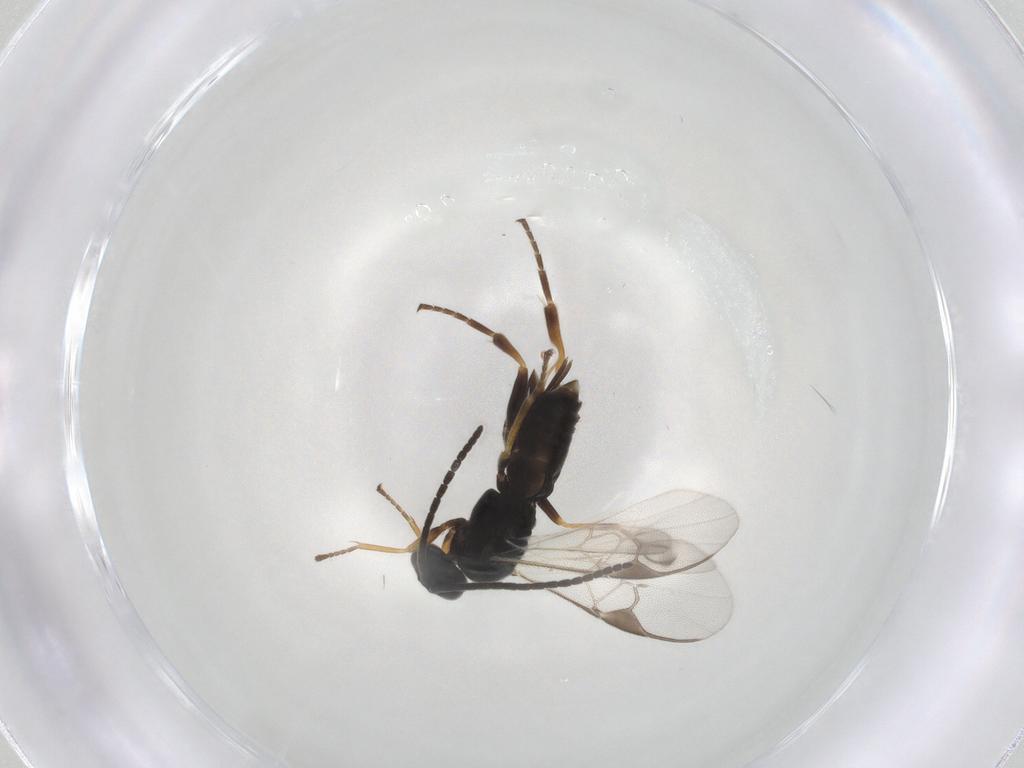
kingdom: Animalia
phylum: Arthropoda
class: Insecta
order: Hymenoptera
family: Braconidae
